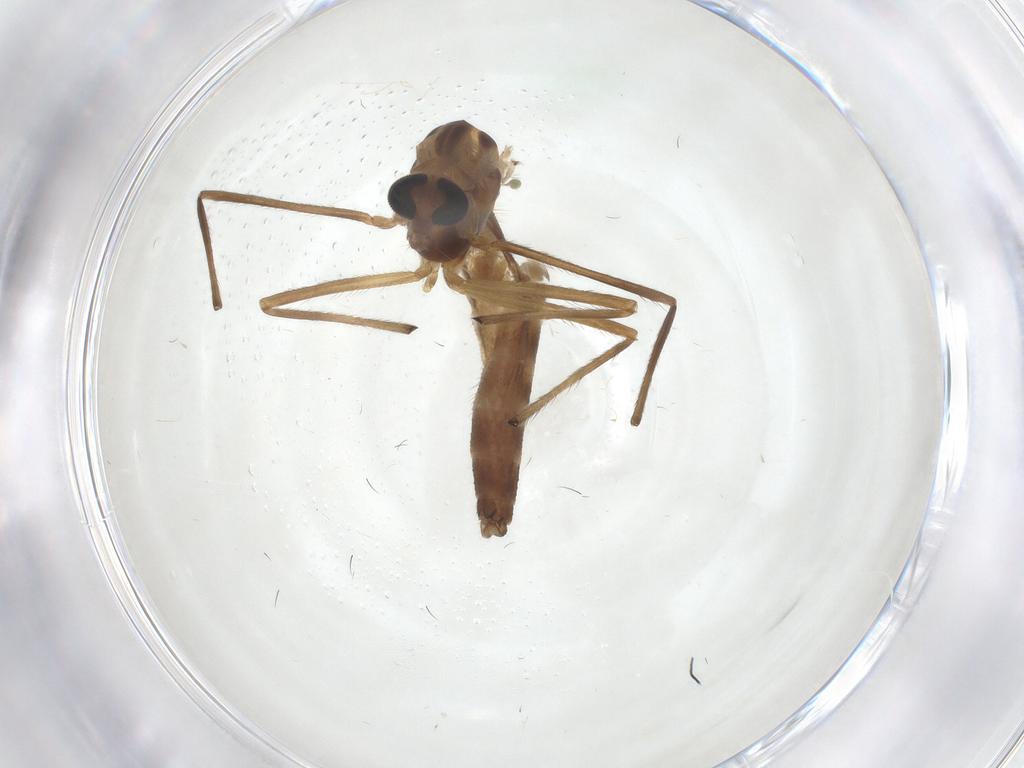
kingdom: Animalia
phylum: Arthropoda
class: Insecta
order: Diptera
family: Chironomidae
